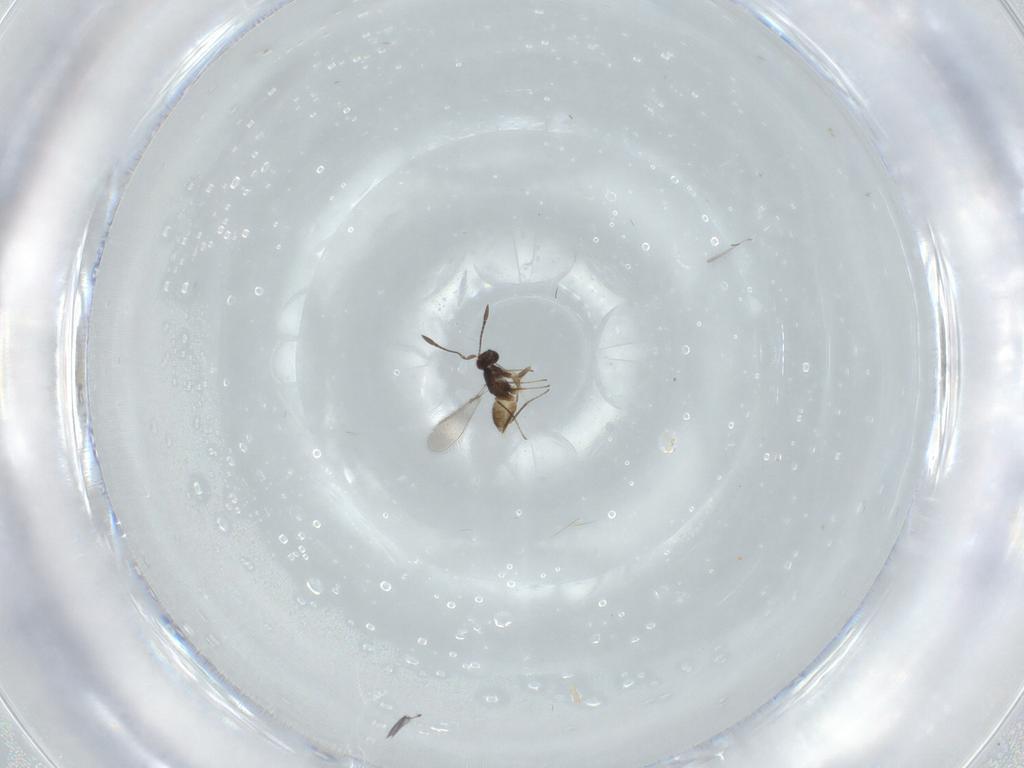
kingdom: Animalia
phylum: Arthropoda
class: Insecta
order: Hymenoptera
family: Mymaridae
